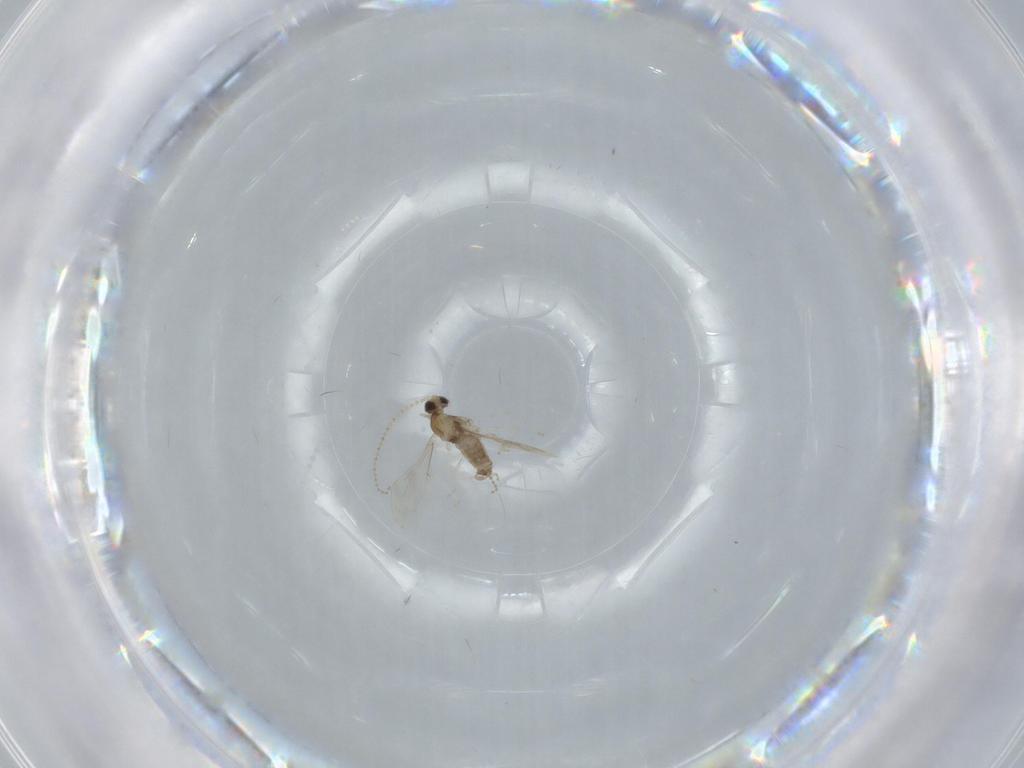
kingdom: Animalia
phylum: Arthropoda
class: Insecta
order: Diptera
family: Cecidomyiidae
